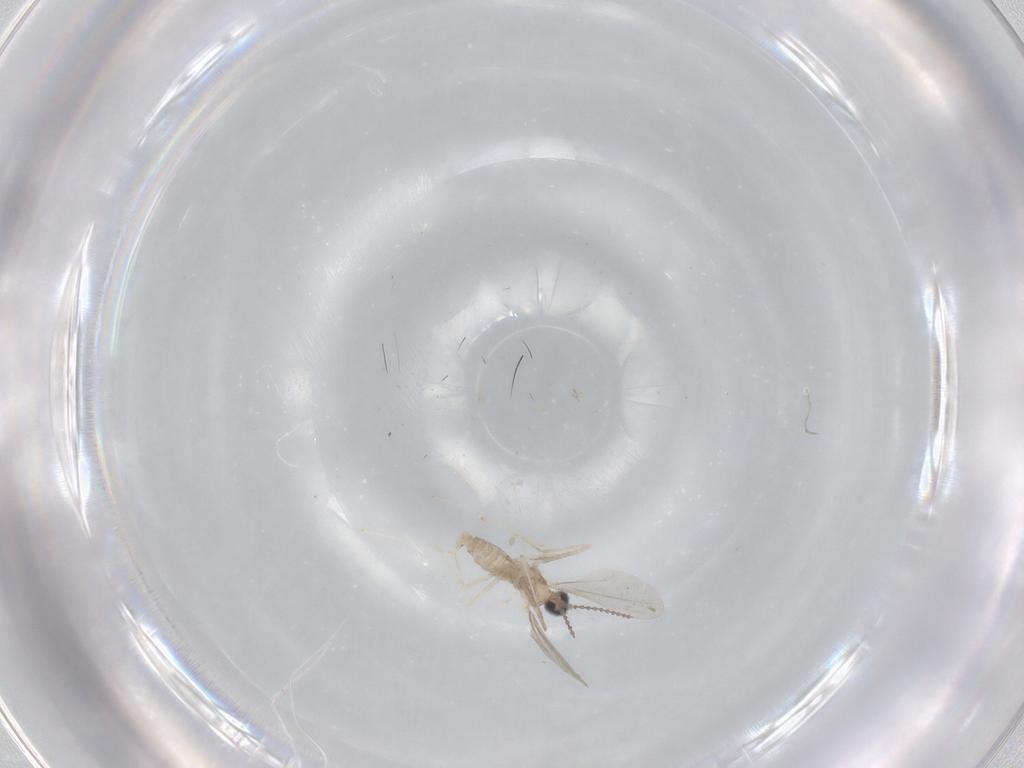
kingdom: Animalia
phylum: Arthropoda
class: Insecta
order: Diptera
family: Cecidomyiidae
